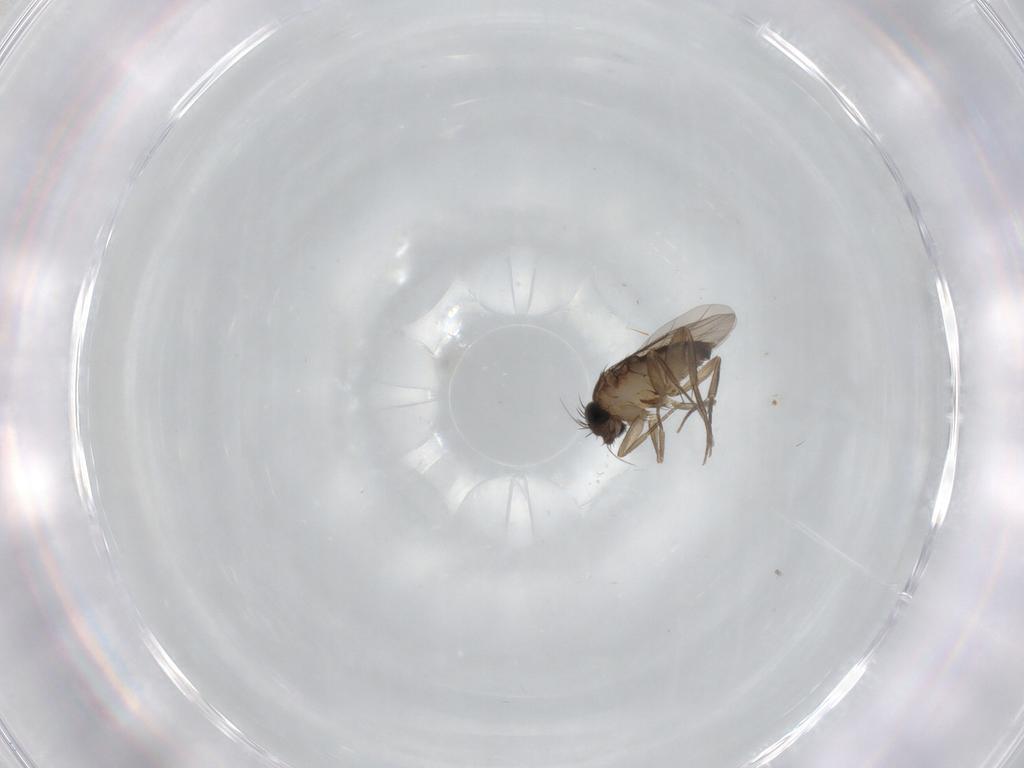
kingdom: Animalia
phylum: Arthropoda
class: Insecta
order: Diptera
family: Phoridae
